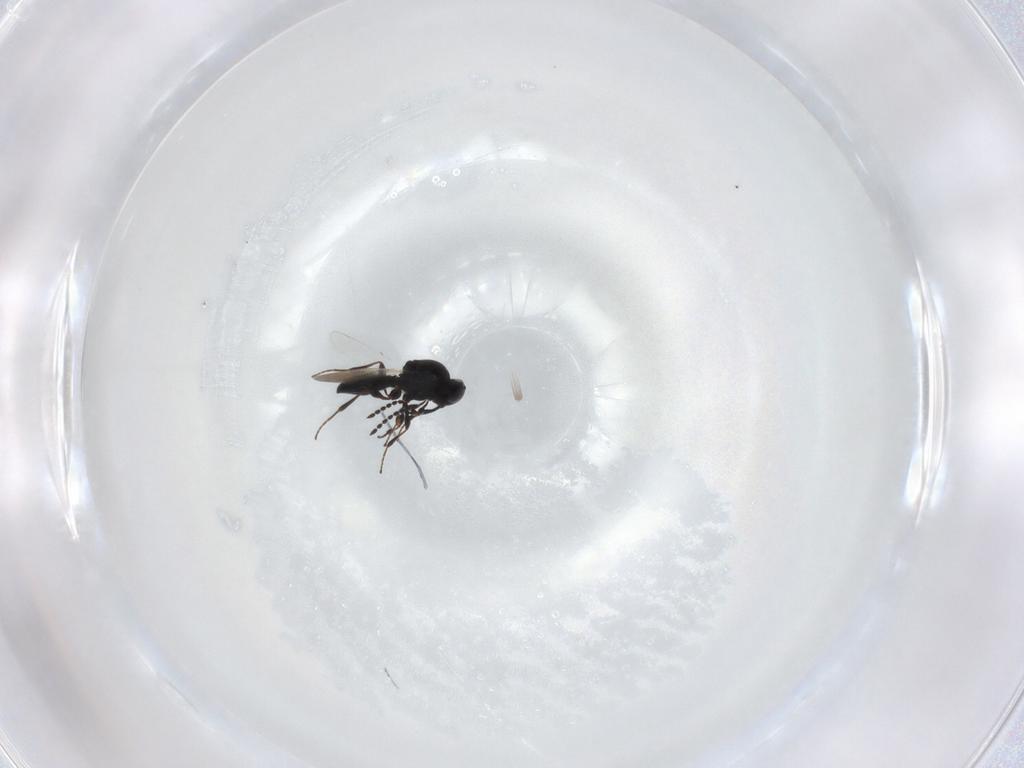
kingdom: Animalia
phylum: Arthropoda
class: Insecta
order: Hymenoptera
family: Platygastridae
